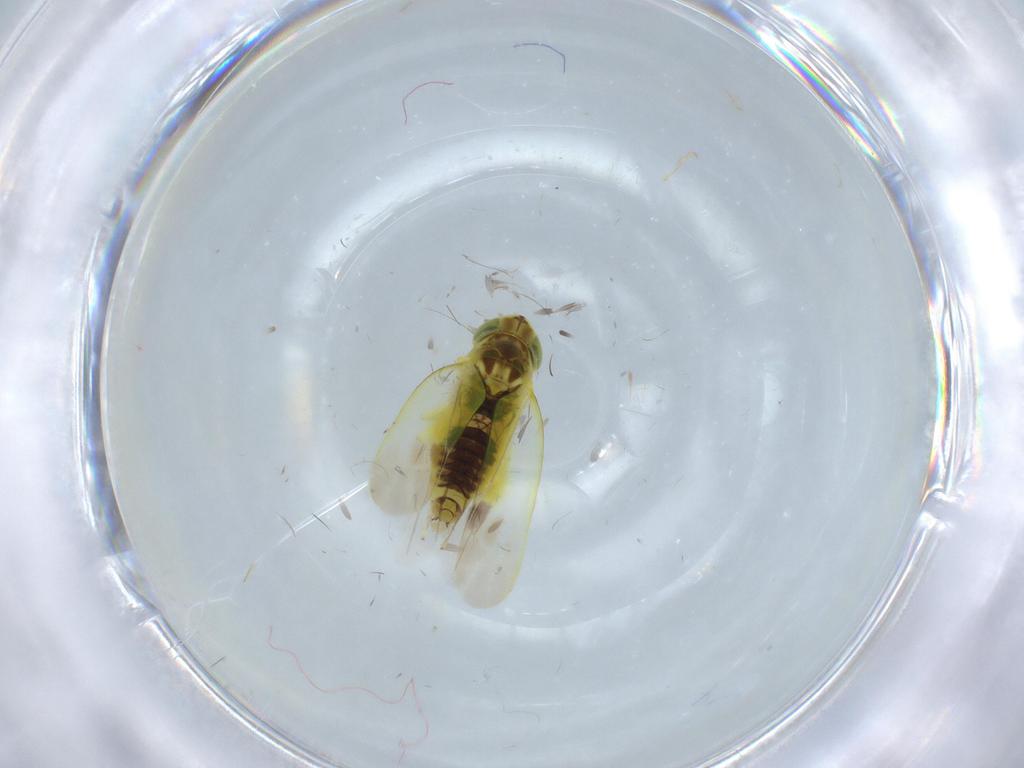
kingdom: Animalia
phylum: Arthropoda
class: Insecta
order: Hemiptera
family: Cicadellidae
